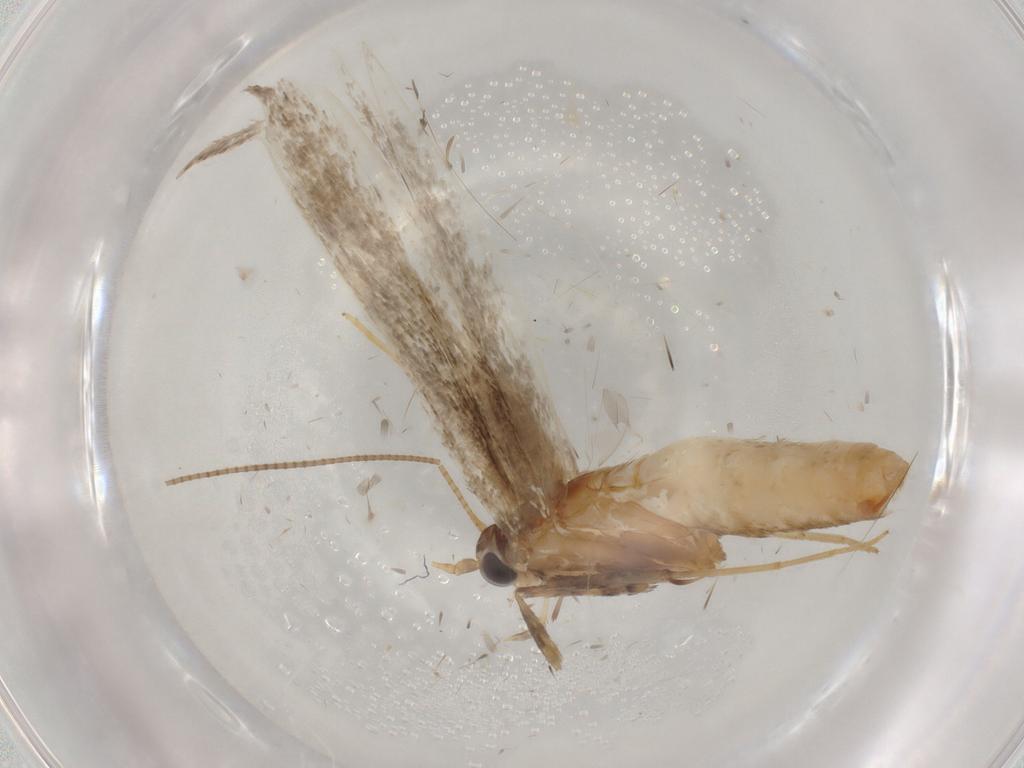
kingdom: Animalia
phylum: Arthropoda
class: Insecta
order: Lepidoptera
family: Gracillariidae
